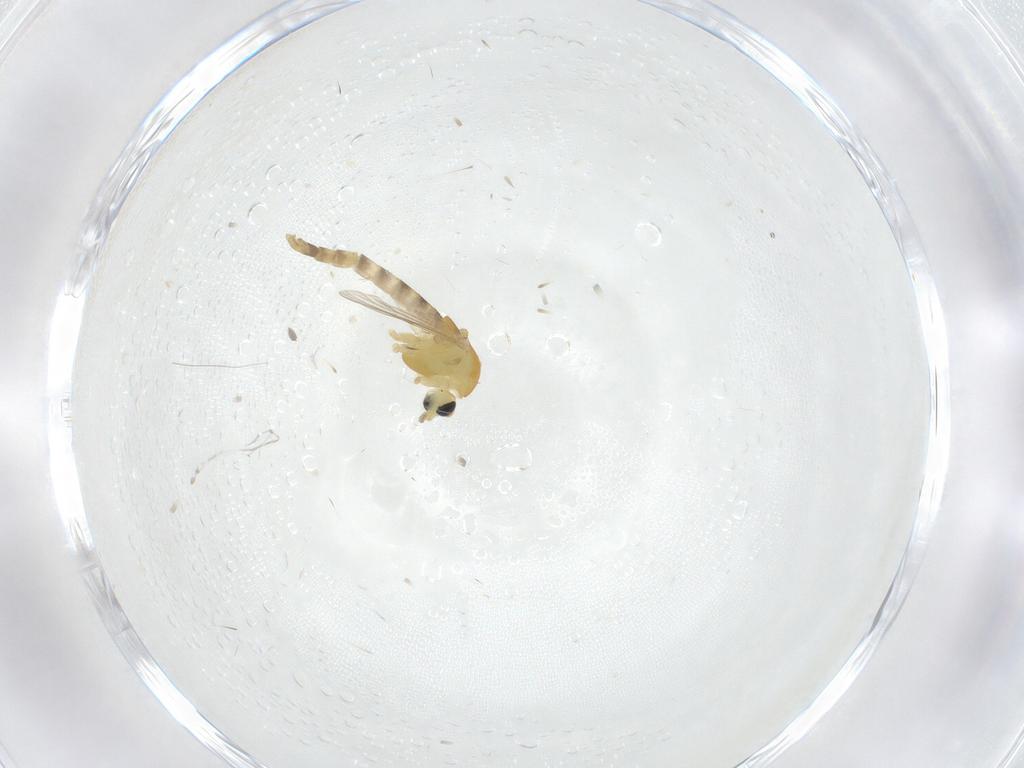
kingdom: Animalia
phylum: Arthropoda
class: Insecta
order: Diptera
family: Chironomidae
